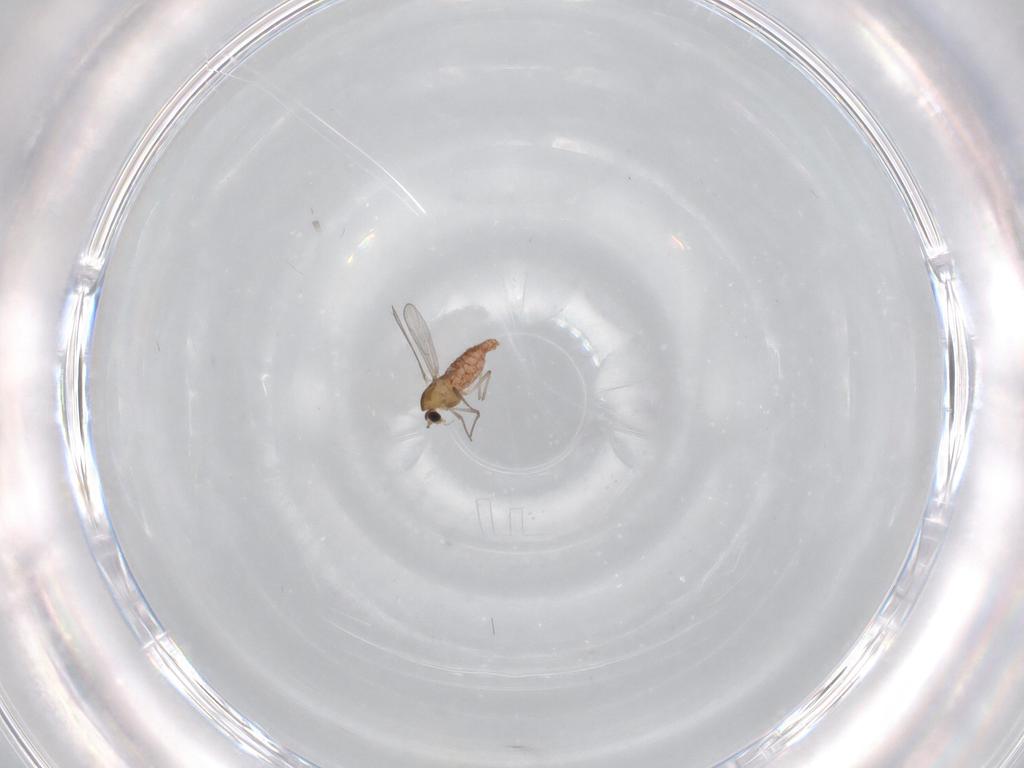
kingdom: Animalia
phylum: Arthropoda
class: Insecta
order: Diptera
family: Chironomidae
